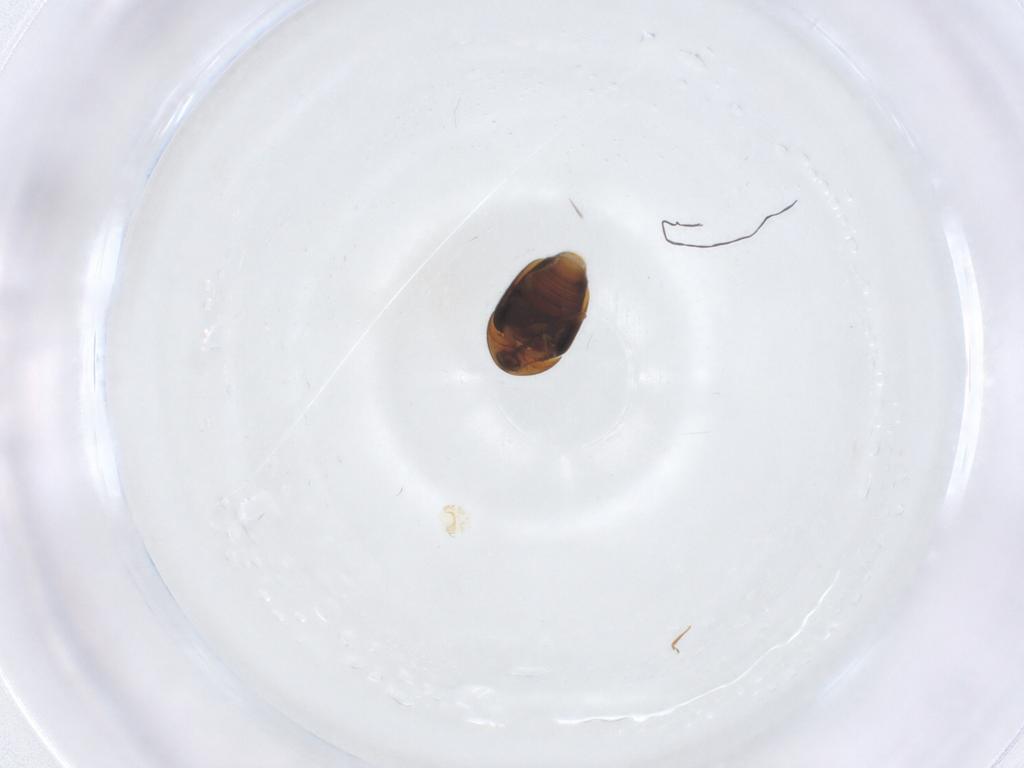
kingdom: Animalia
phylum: Arthropoda
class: Insecta
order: Coleoptera
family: Corylophidae
